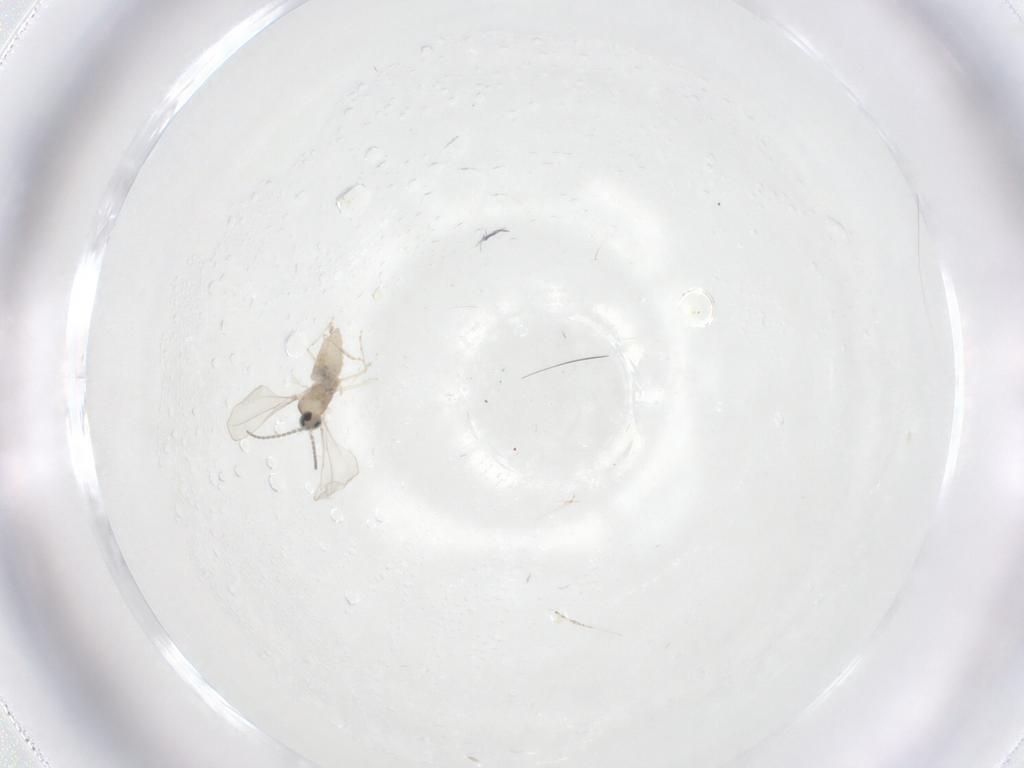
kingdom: Animalia
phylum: Arthropoda
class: Insecta
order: Diptera
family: Cecidomyiidae
